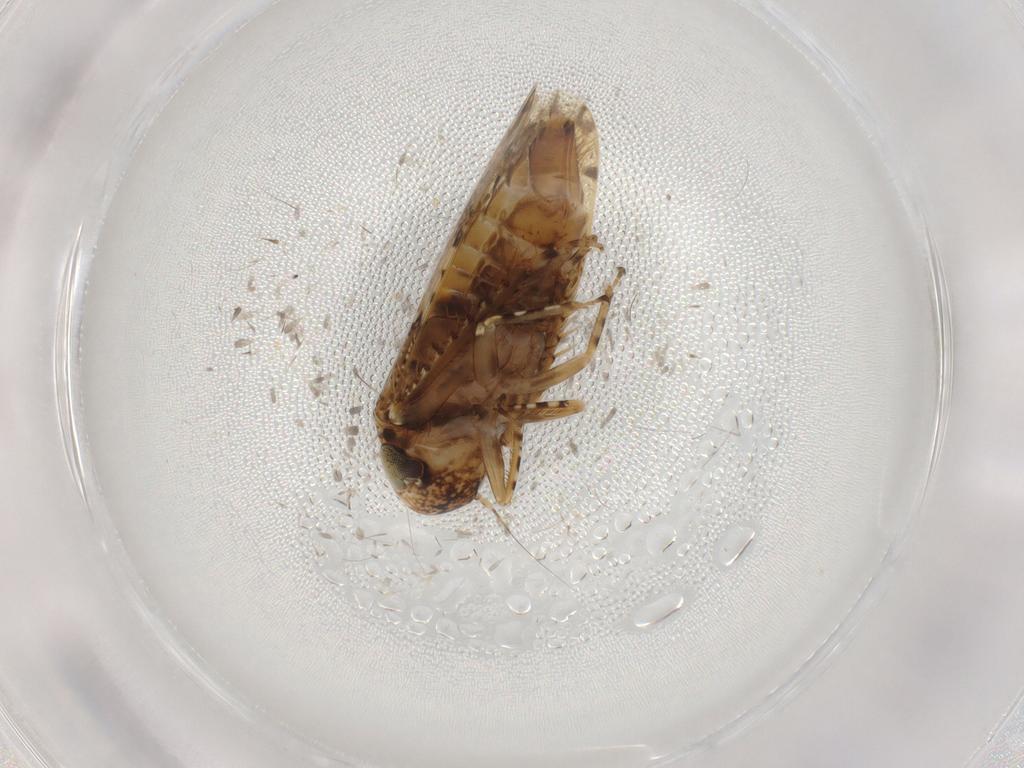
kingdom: Animalia
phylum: Arthropoda
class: Insecta
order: Hemiptera
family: Cicadellidae
